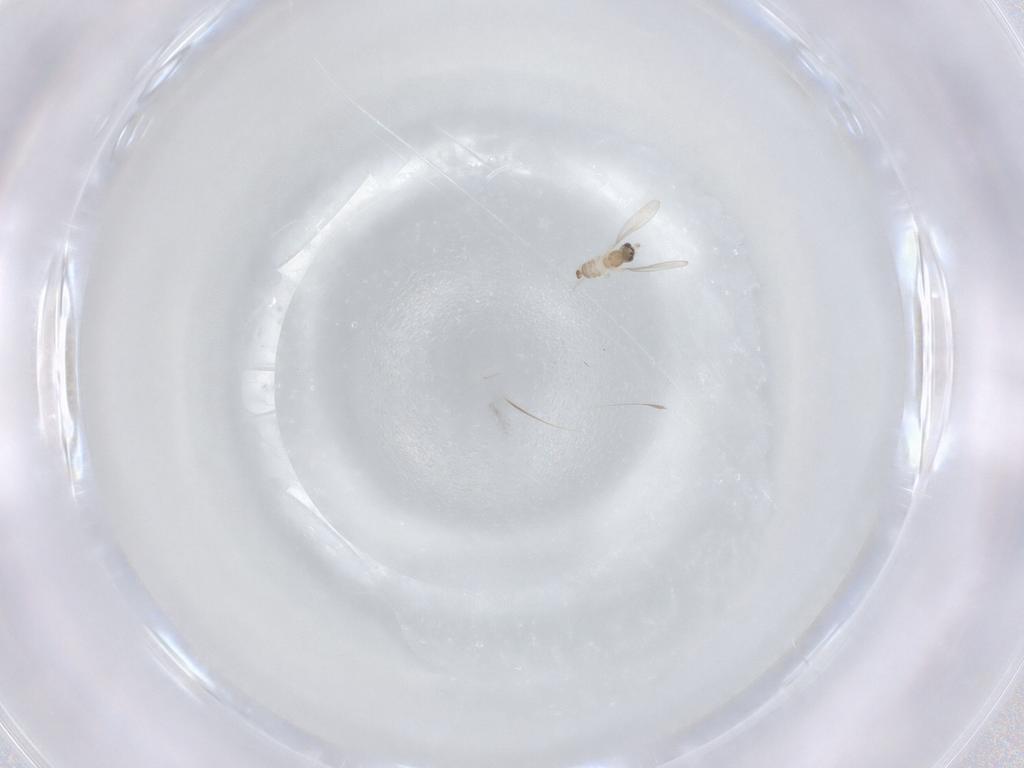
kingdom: Animalia
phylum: Arthropoda
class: Insecta
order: Diptera
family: Cecidomyiidae
